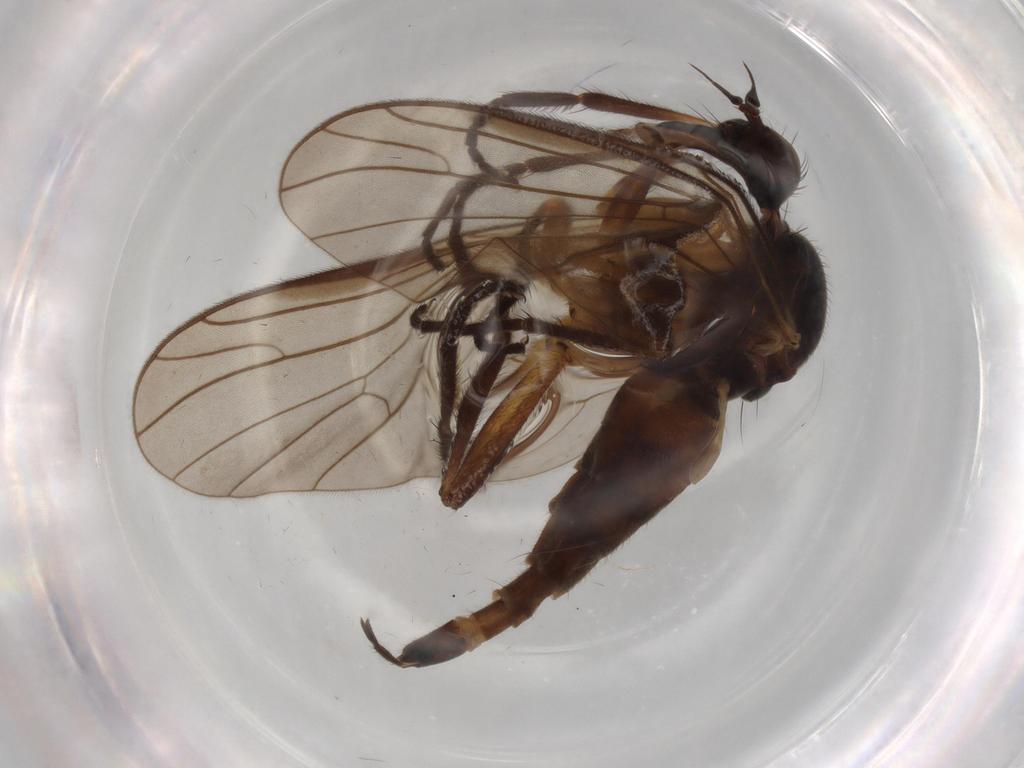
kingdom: Animalia
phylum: Arthropoda
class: Insecta
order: Diptera
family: Empididae
